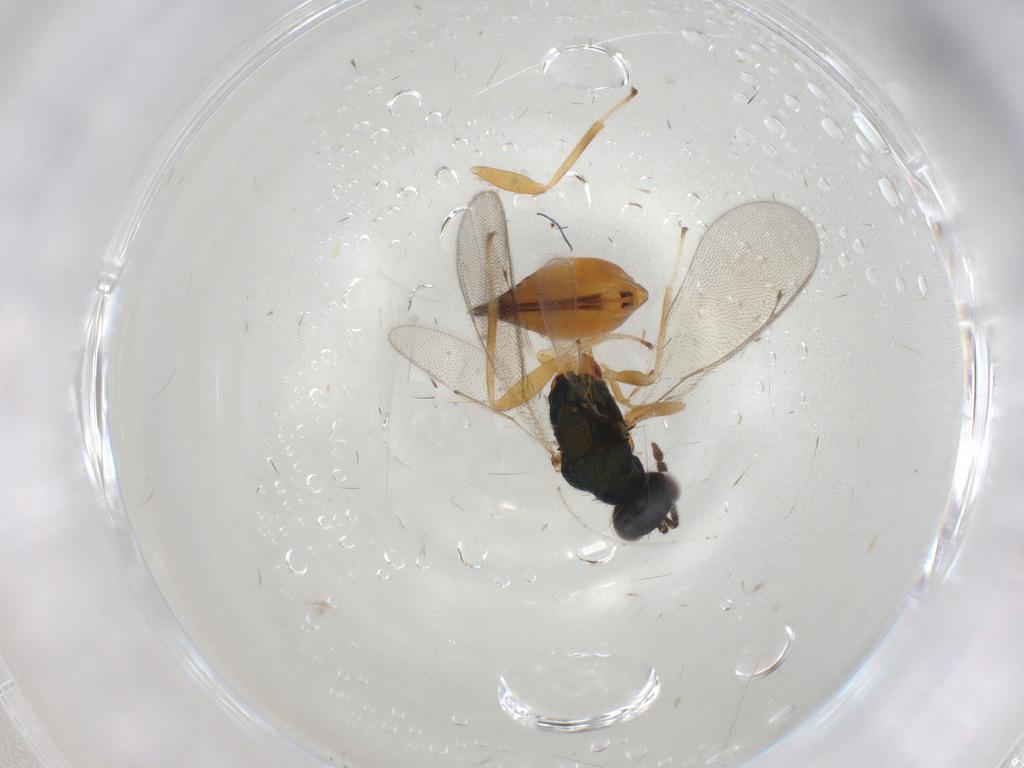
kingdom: Animalia
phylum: Arthropoda
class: Insecta
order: Hymenoptera
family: Eulophidae
